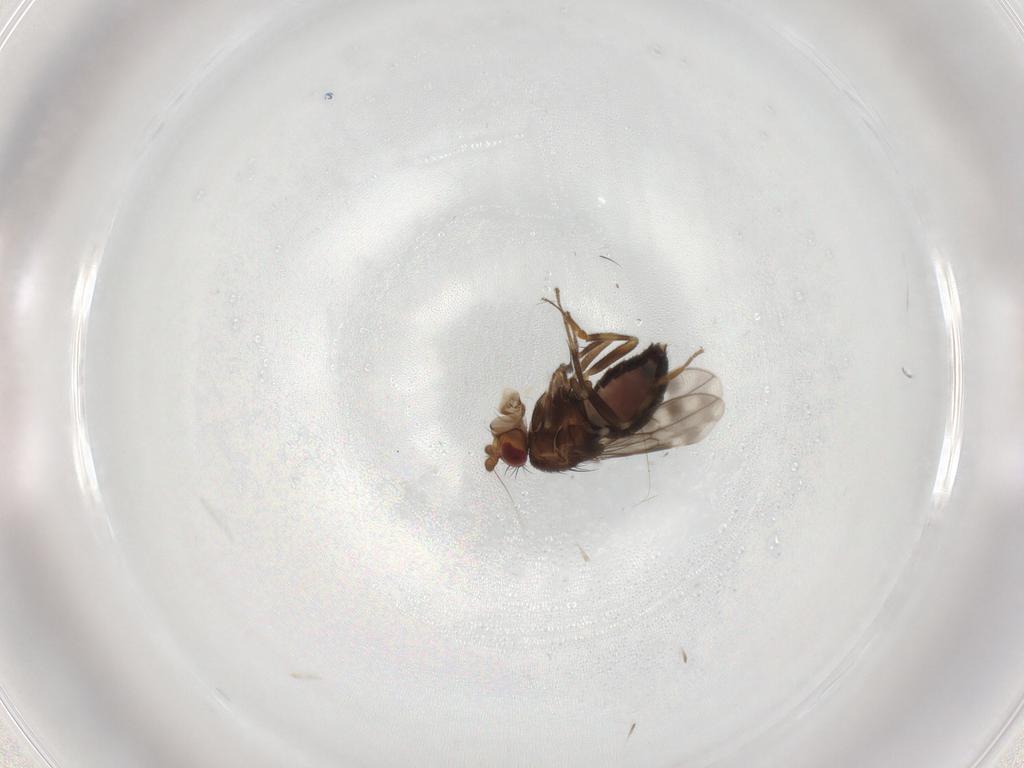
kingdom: Animalia
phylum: Arthropoda
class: Insecta
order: Diptera
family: Sphaeroceridae
